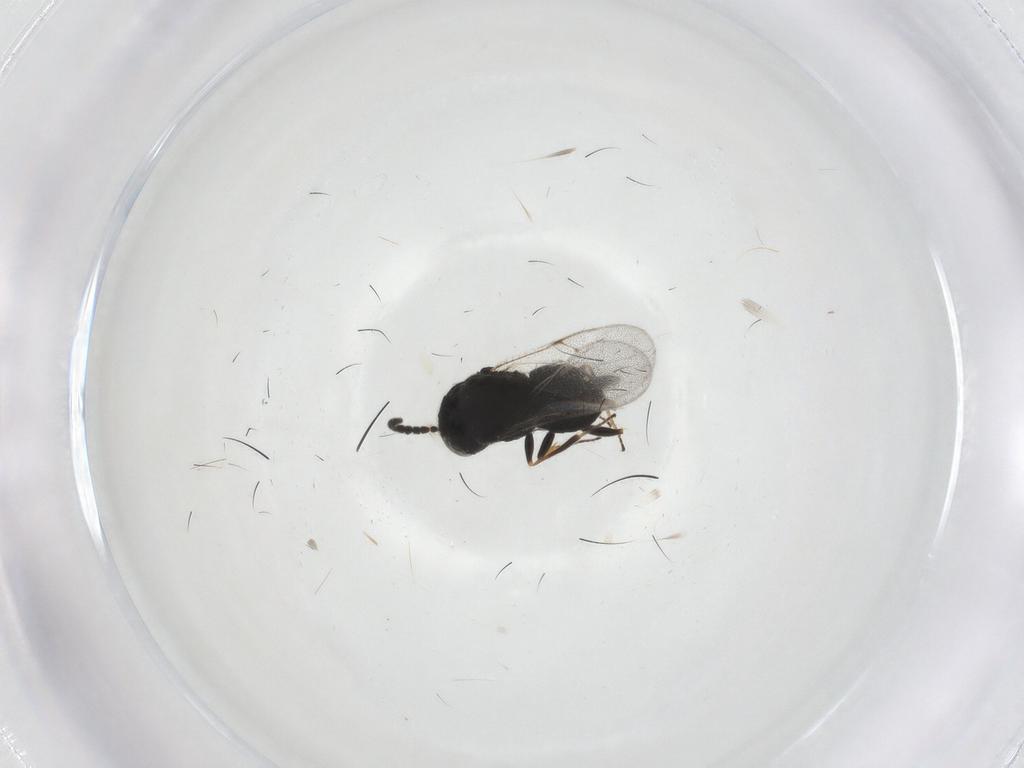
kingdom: Animalia
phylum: Arthropoda
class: Insecta
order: Hymenoptera
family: Scelionidae
